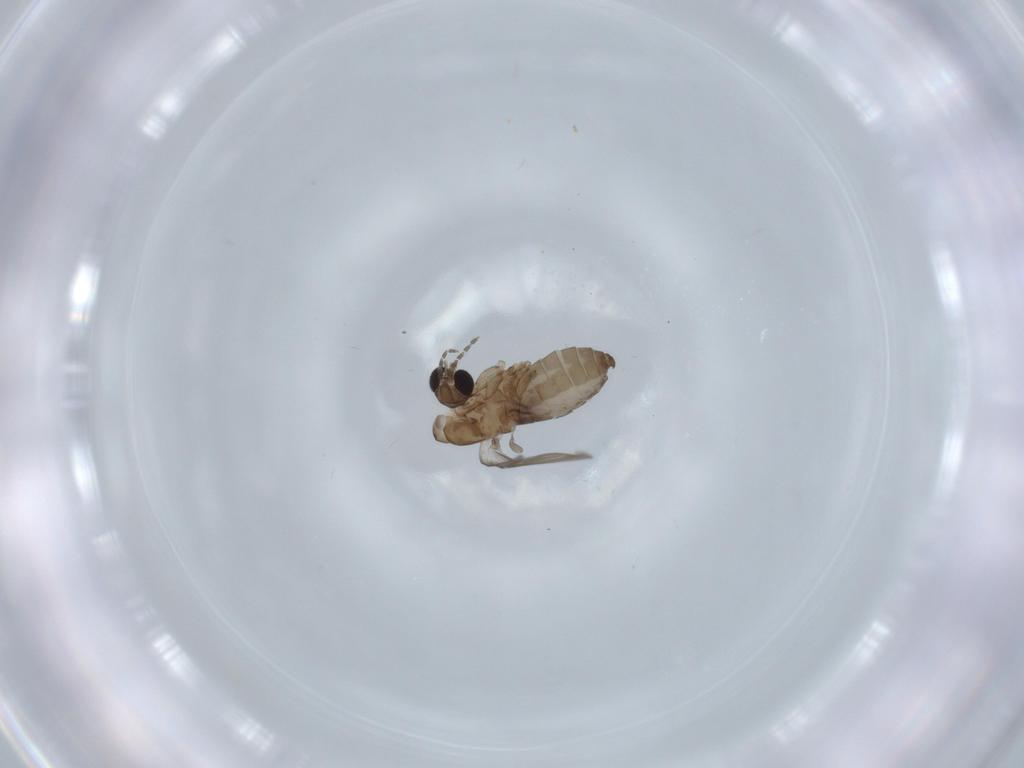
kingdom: Animalia
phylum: Arthropoda
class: Insecta
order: Diptera
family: Psychodidae
